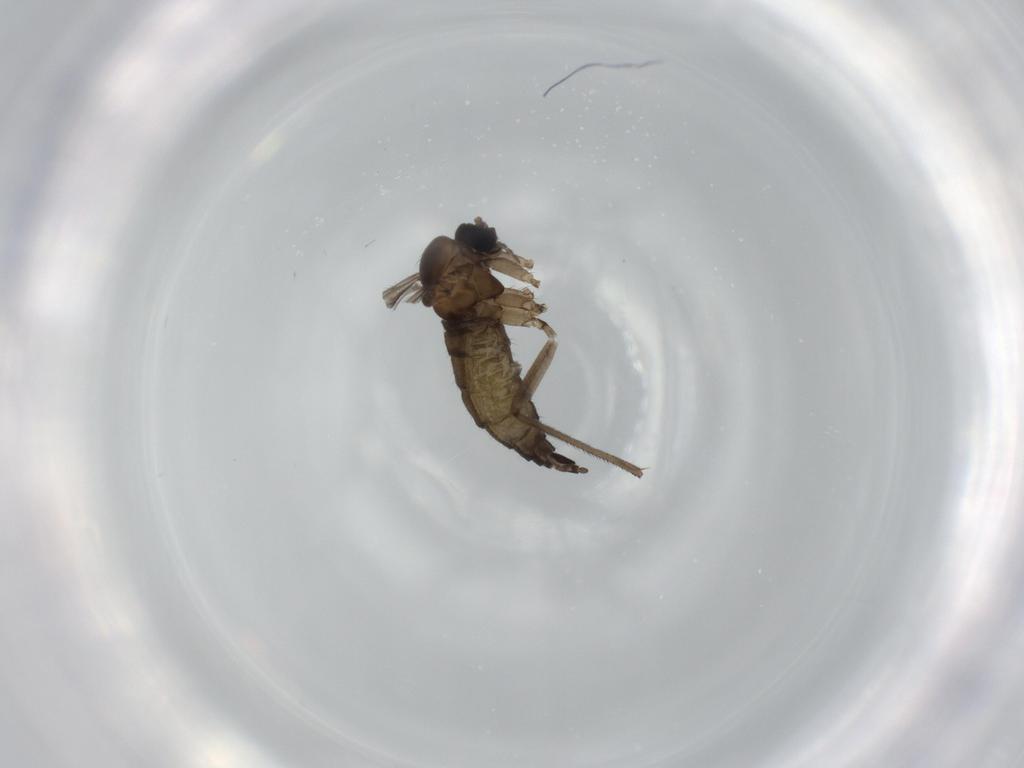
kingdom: Animalia
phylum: Arthropoda
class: Insecta
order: Diptera
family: Sciaridae
